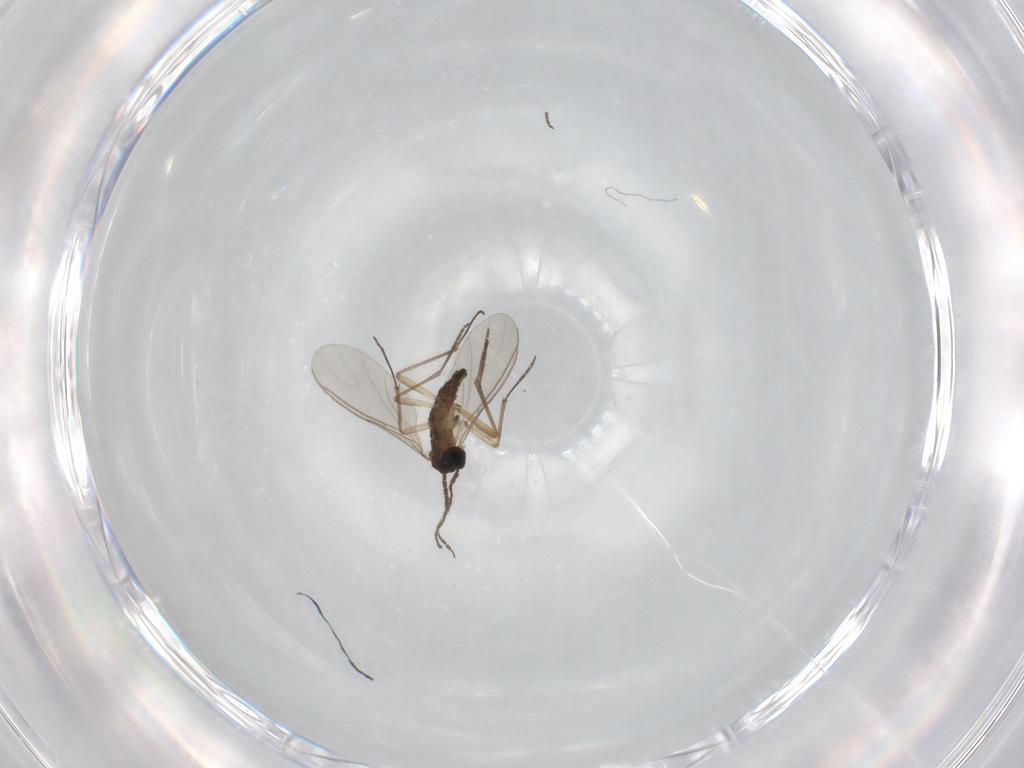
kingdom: Animalia
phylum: Arthropoda
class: Insecta
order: Diptera
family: Sciaridae
